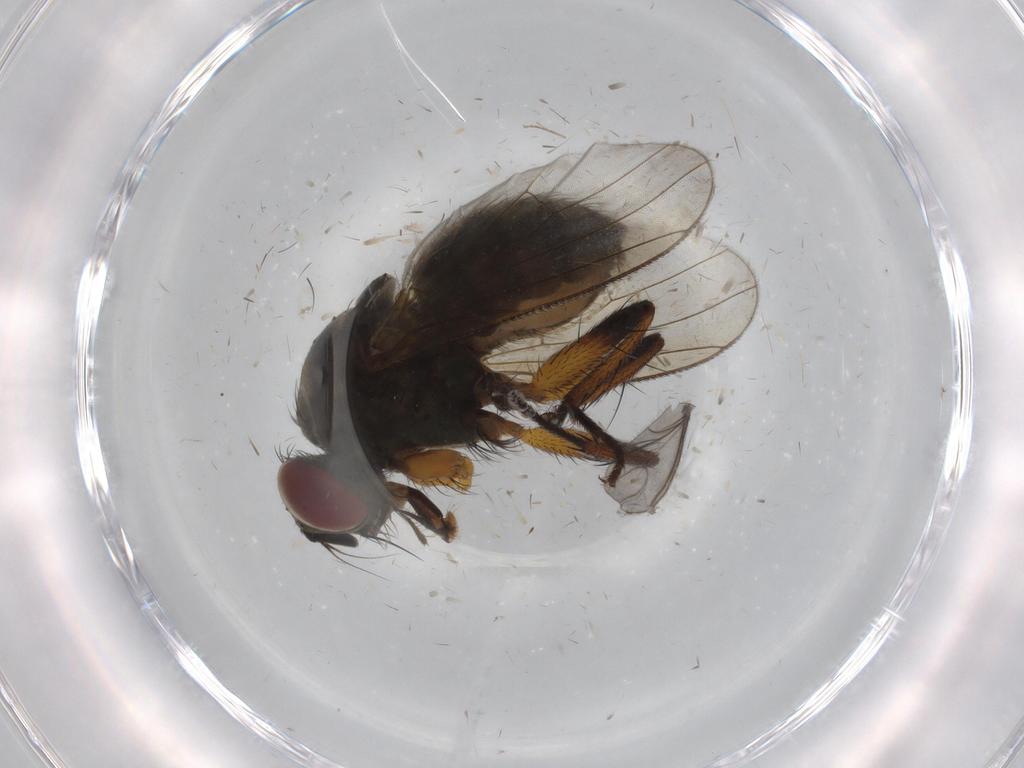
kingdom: Animalia
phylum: Arthropoda
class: Insecta
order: Diptera
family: Muscidae
